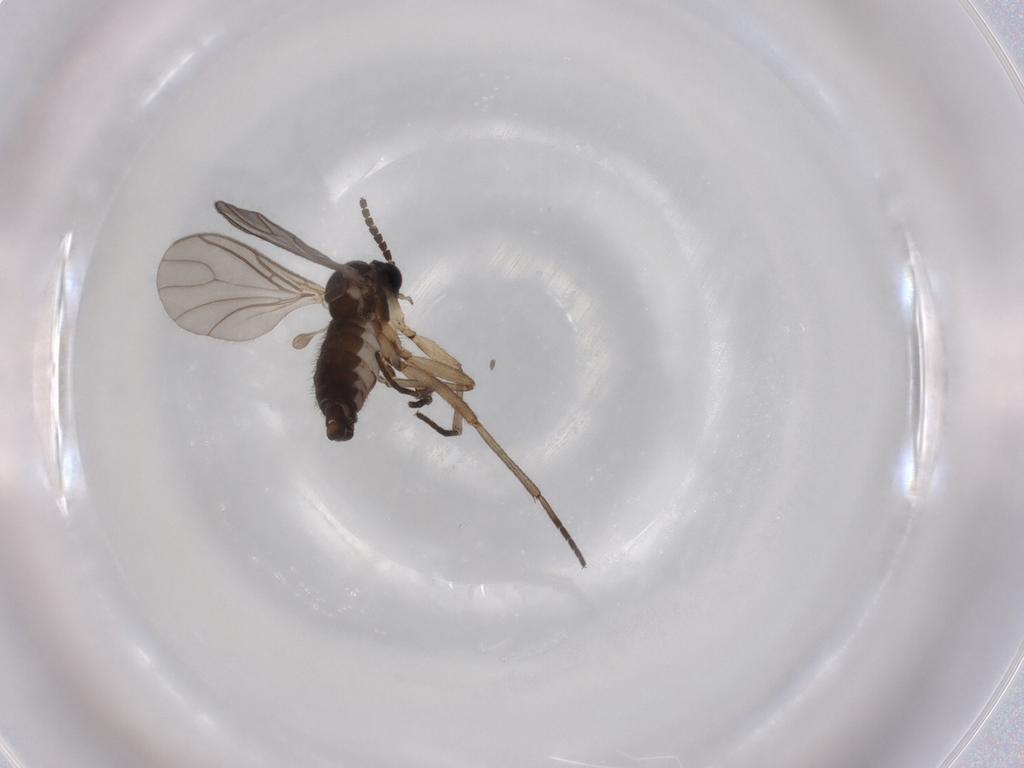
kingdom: Animalia
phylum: Arthropoda
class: Insecta
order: Diptera
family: Sciaridae
